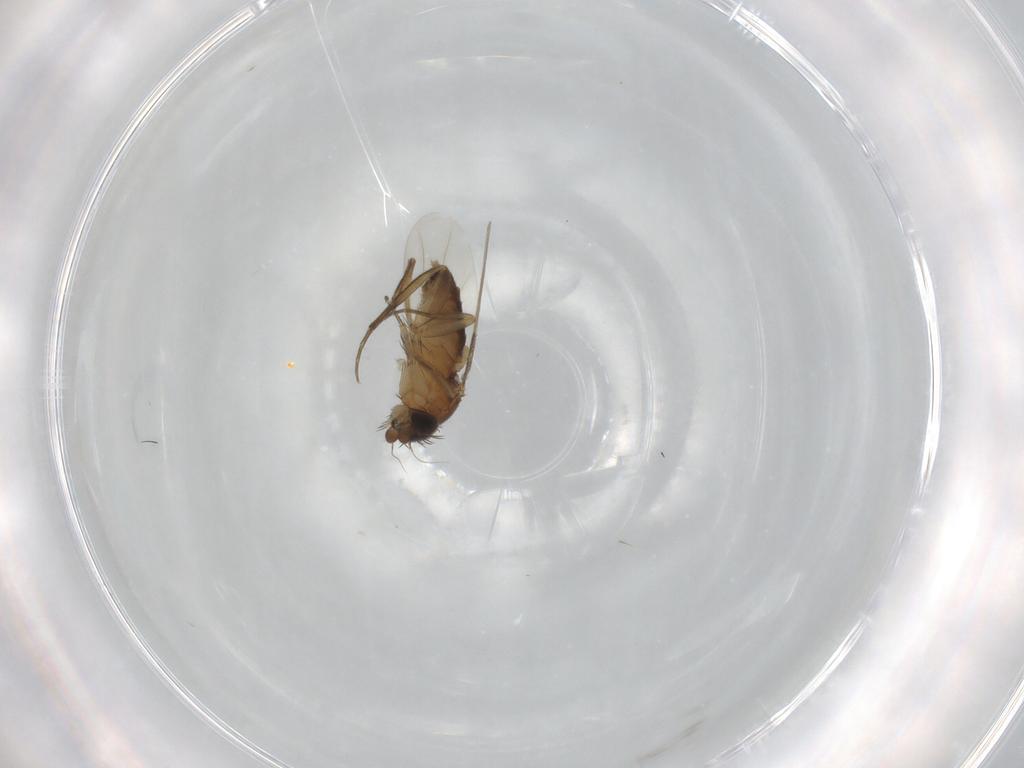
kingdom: Animalia
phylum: Arthropoda
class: Insecta
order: Diptera
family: Phoridae
